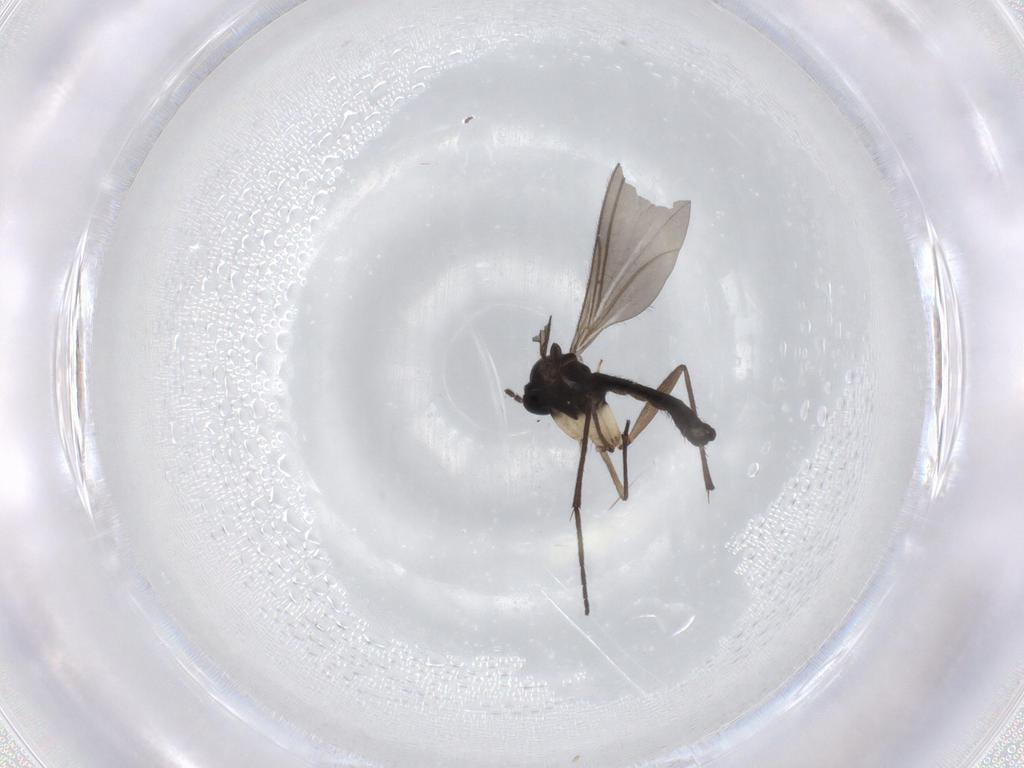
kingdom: Animalia
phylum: Arthropoda
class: Insecta
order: Diptera
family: Sciaridae
